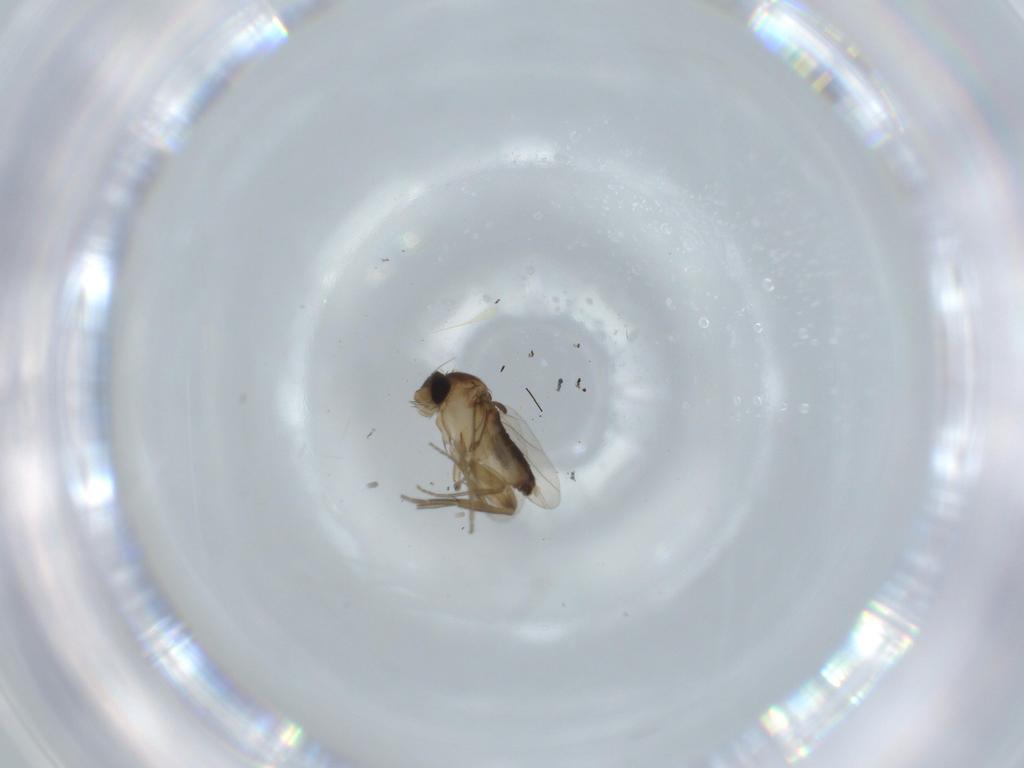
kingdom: Animalia
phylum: Arthropoda
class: Insecta
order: Diptera
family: Phoridae
